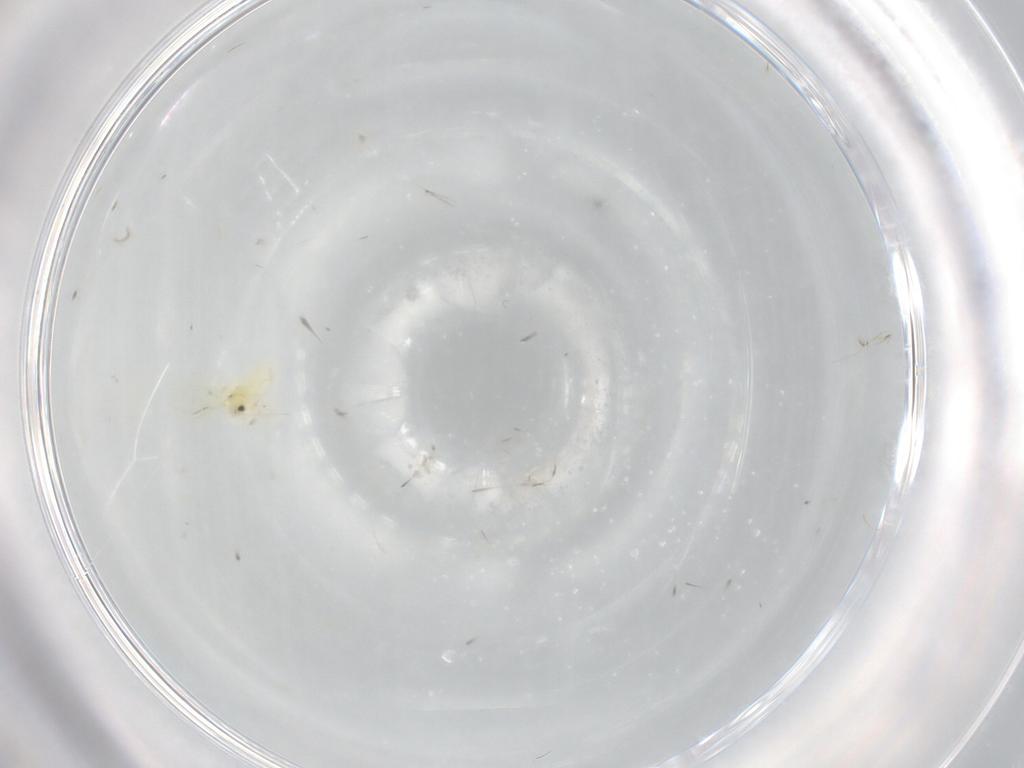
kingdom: Animalia
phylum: Arthropoda
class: Insecta
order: Hemiptera
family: Aleyrodidae
